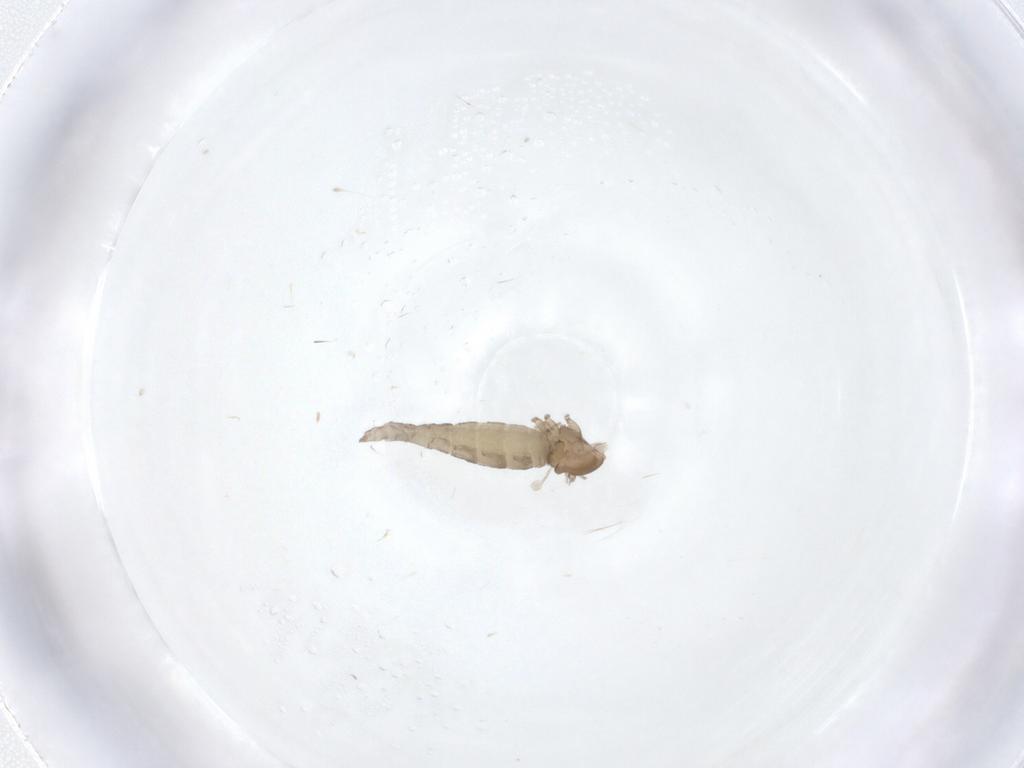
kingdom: Animalia
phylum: Arthropoda
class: Insecta
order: Diptera
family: Cecidomyiidae
